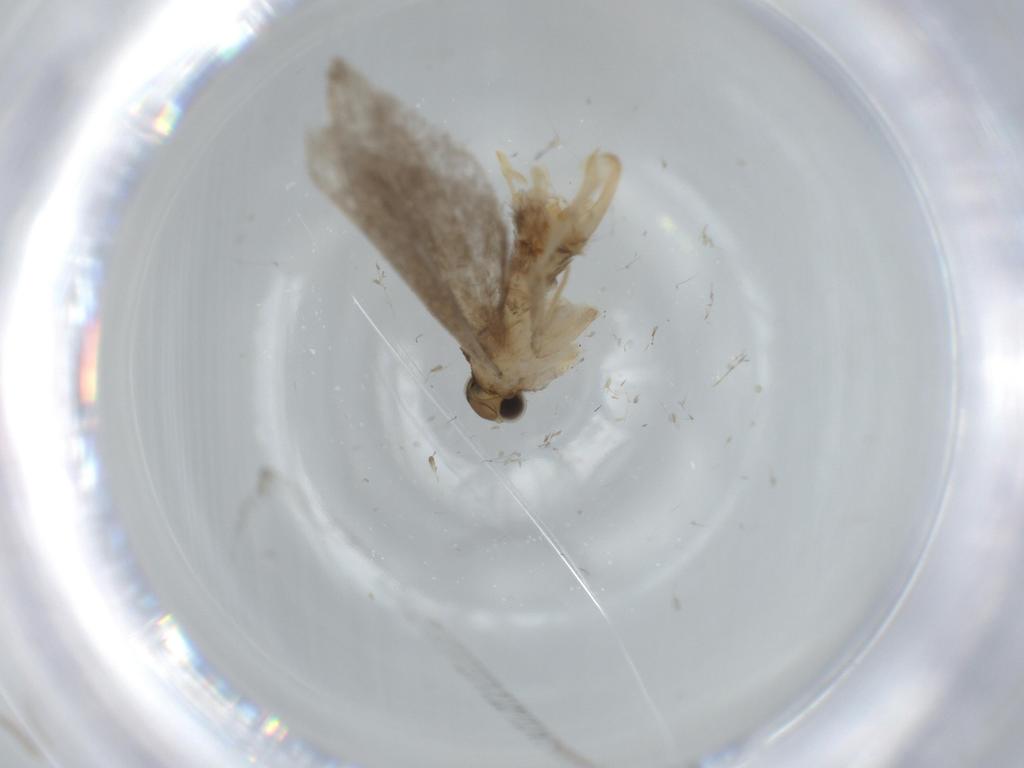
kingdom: Animalia
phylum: Arthropoda
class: Insecta
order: Lepidoptera
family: Tineidae
